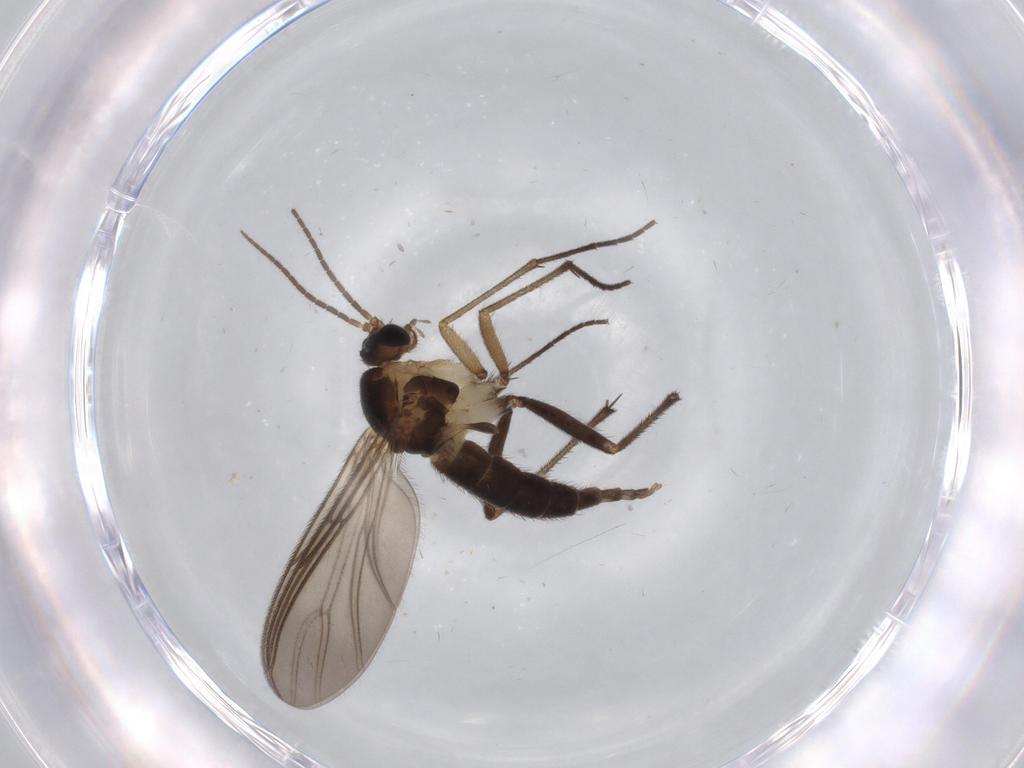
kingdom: Animalia
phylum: Arthropoda
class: Insecta
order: Diptera
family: Sciaridae
